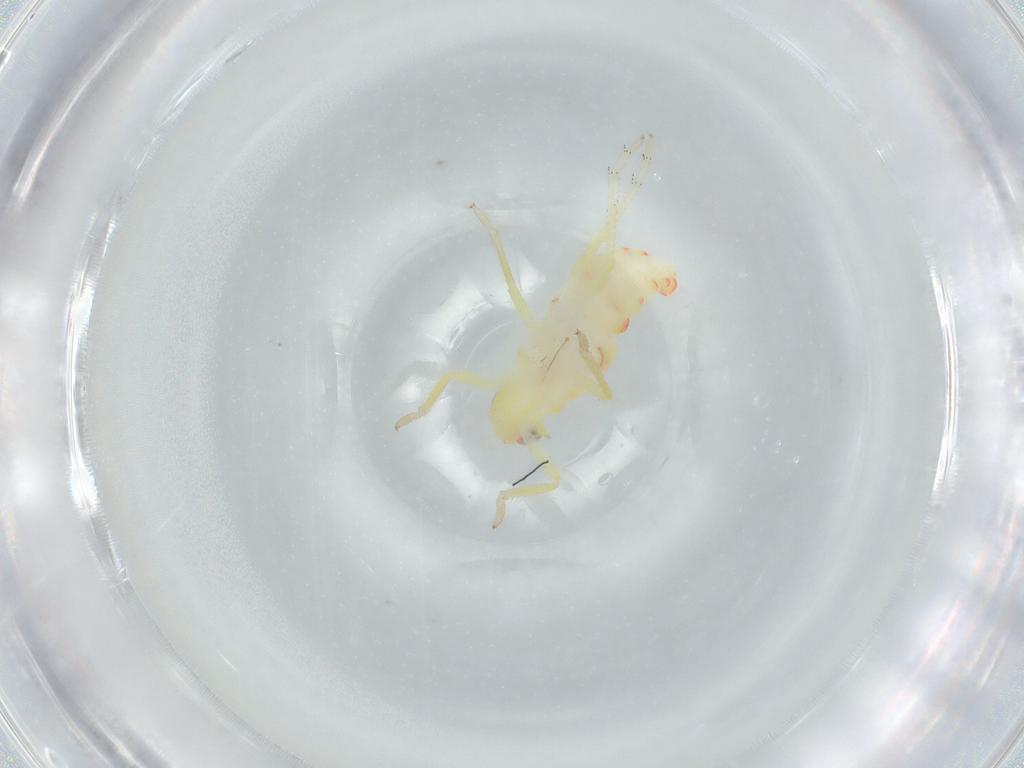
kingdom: Animalia
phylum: Arthropoda
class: Insecta
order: Hemiptera
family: Tropiduchidae
